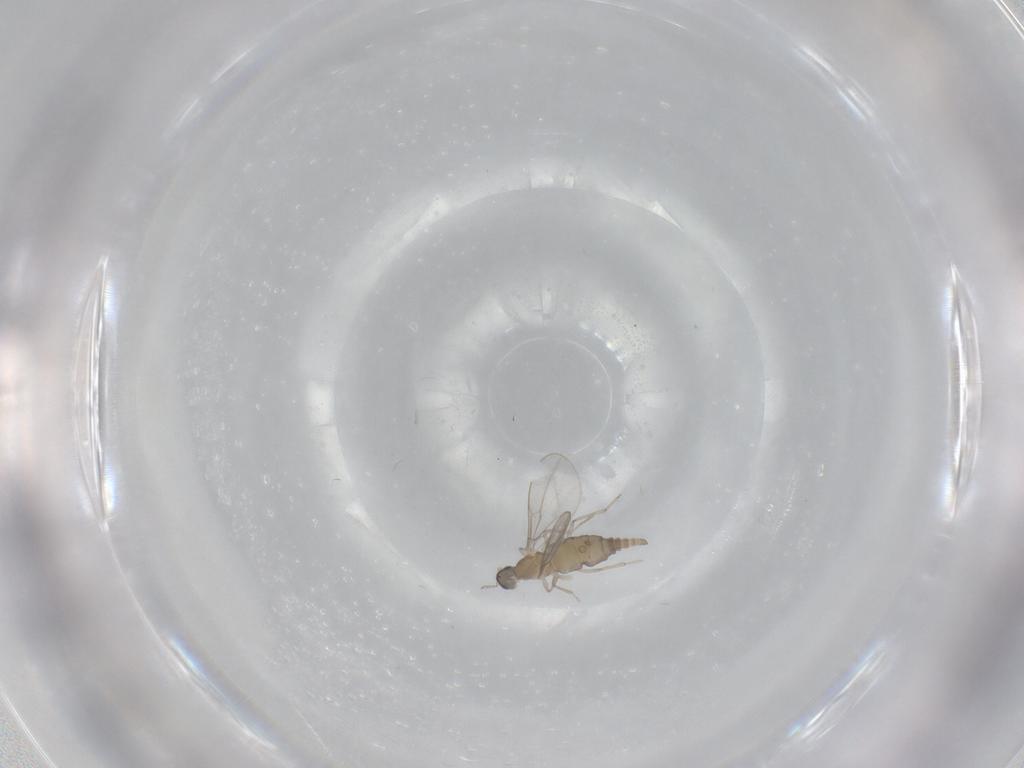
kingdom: Animalia
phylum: Arthropoda
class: Insecta
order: Diptera
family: Cecidomyiidae
